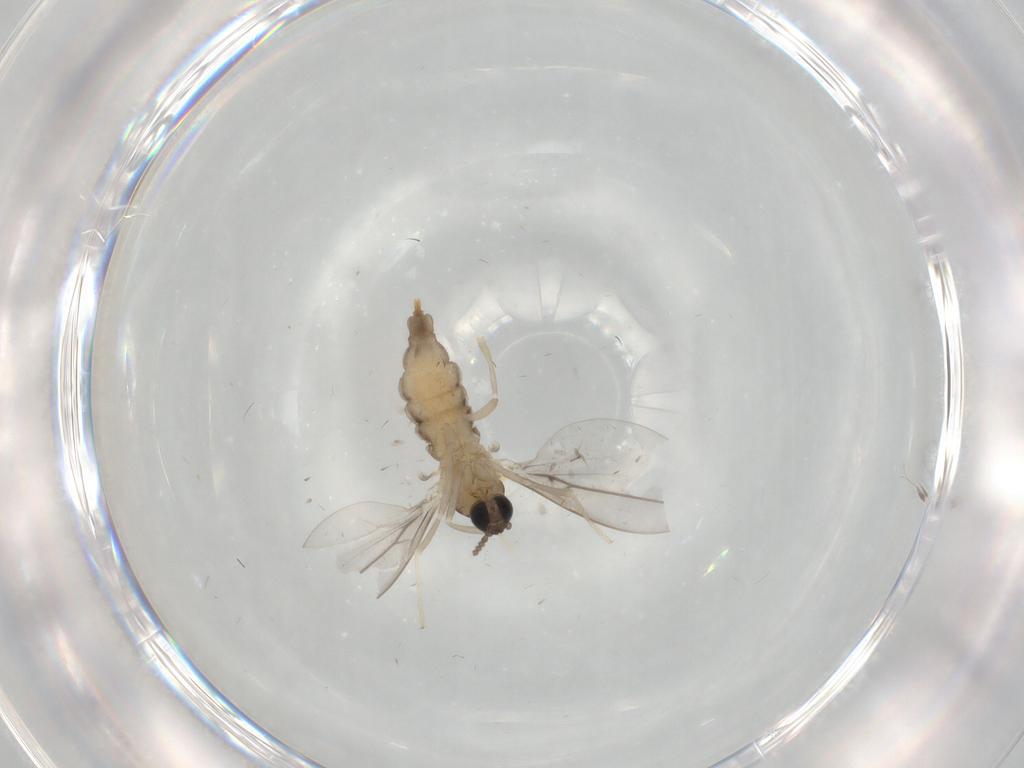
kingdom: Animalia
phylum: Arthropoda
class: Insecta
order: Diptera
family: Cecidomyiidae
